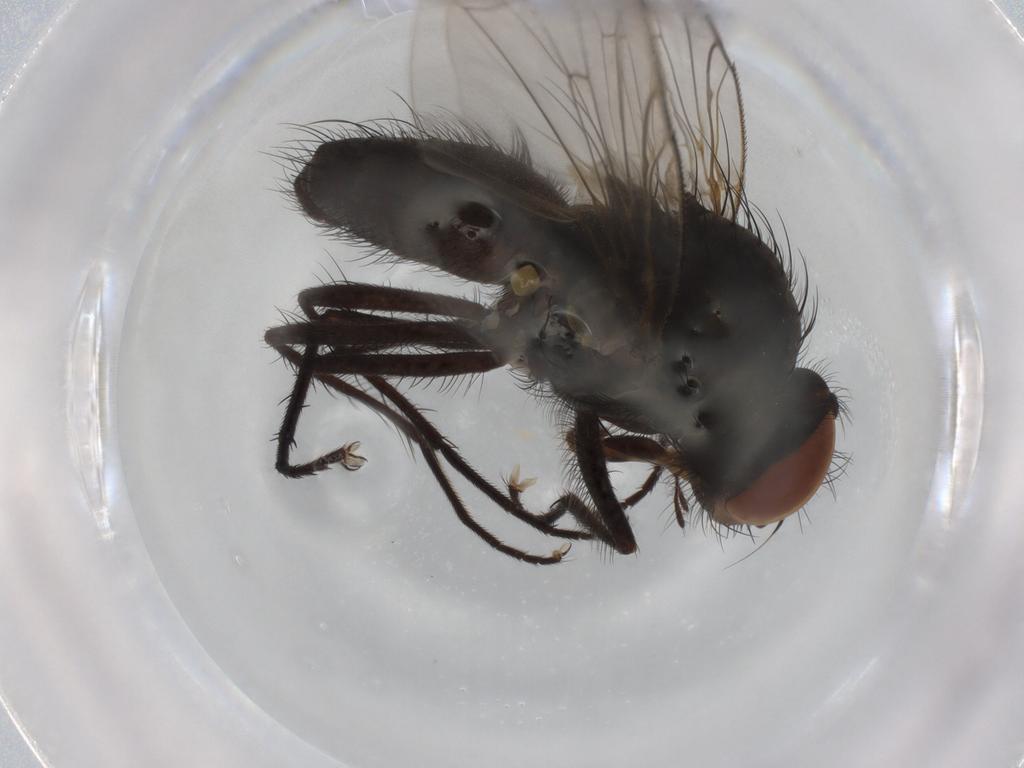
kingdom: Animalia
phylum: Arthropoda
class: Insecta
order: Diptera
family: Anthomyiidae
